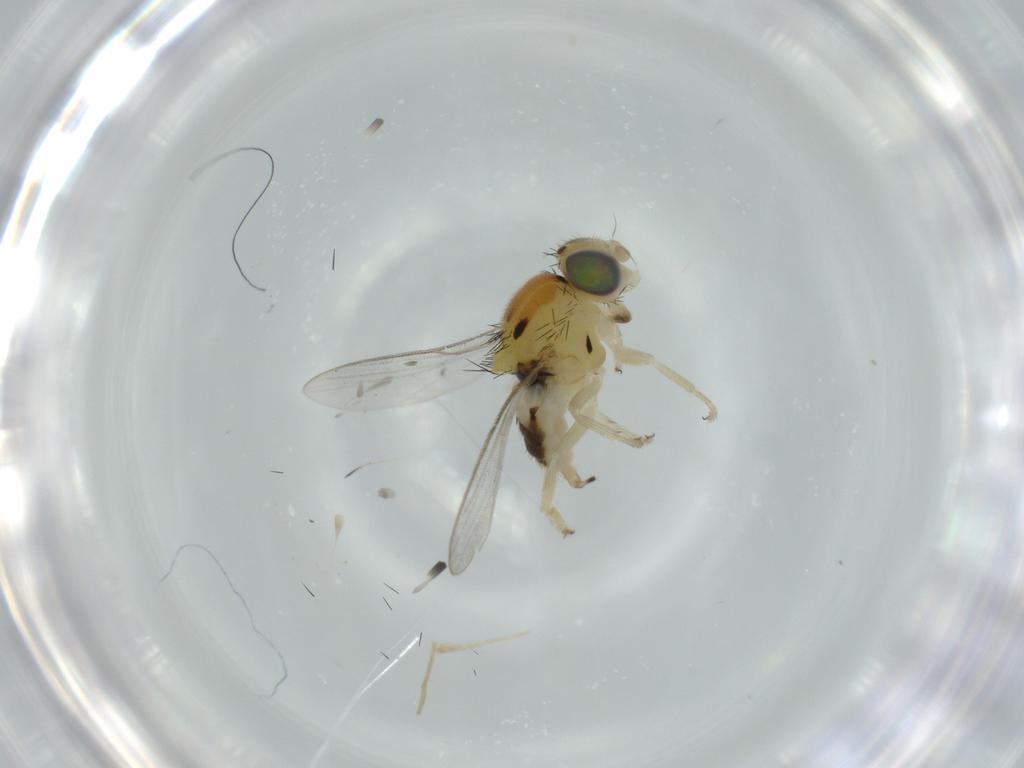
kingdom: Animalia
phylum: Arthropoda
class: Insecta
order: Diptera
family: Chloropidae
